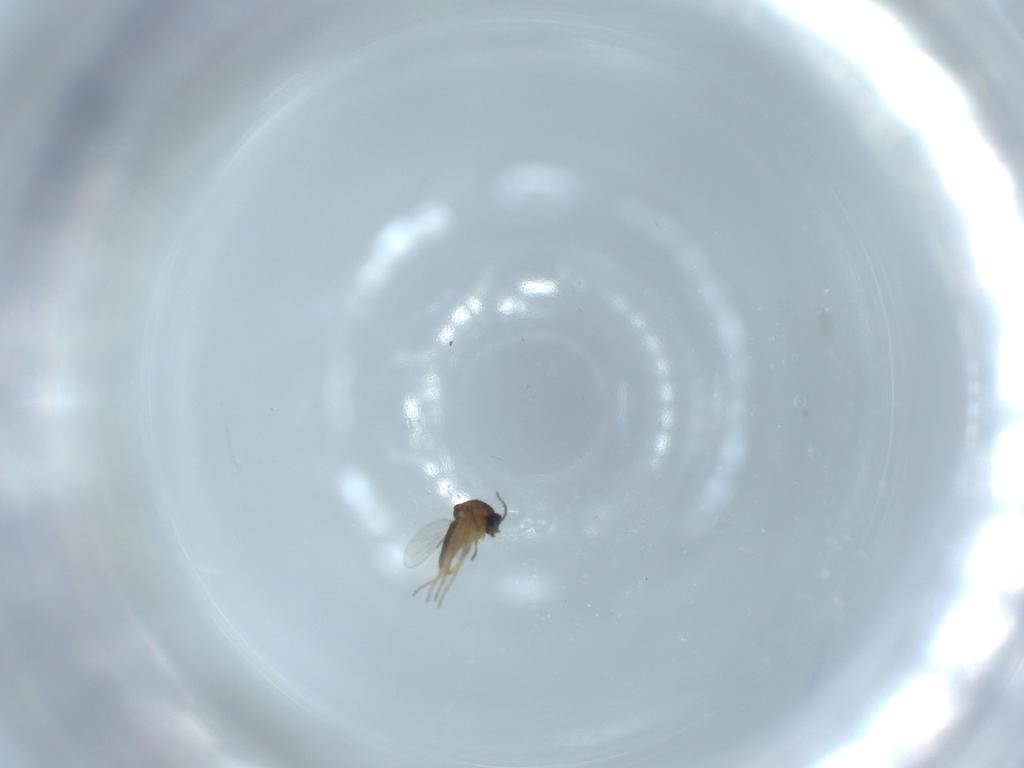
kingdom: Animalia
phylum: Arthropoda
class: Insecta
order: Diptera
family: Ceratopogonidae
